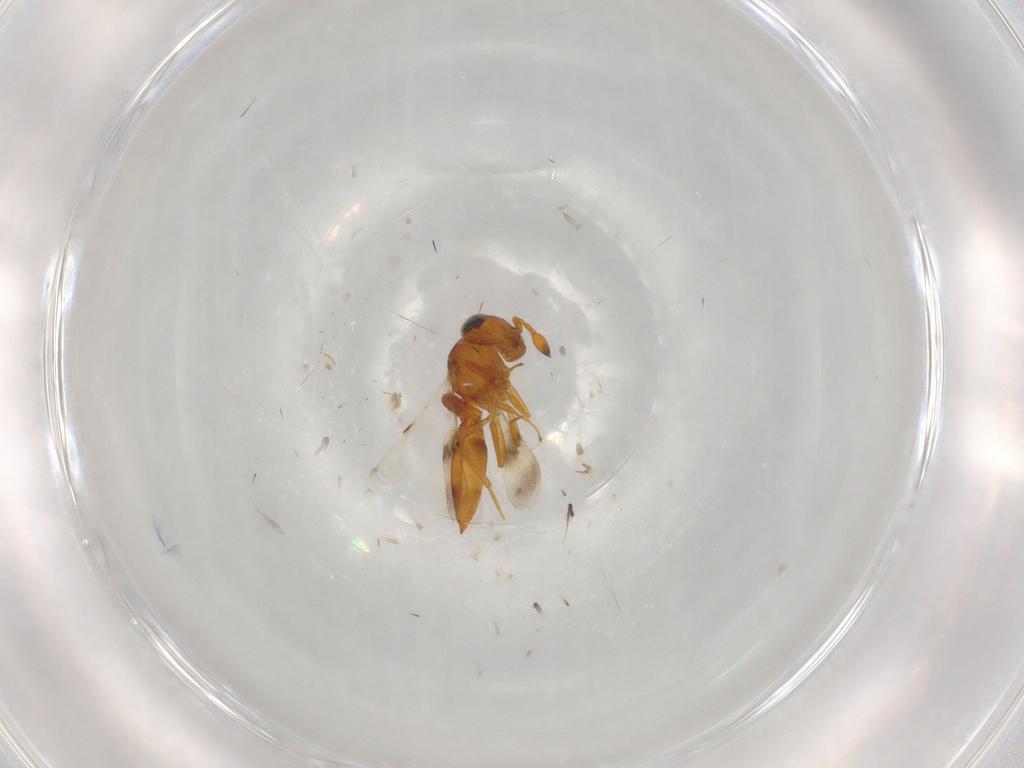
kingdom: Animalia
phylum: Arthropoda
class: Insecta
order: Hymenoptera
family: Scelionidae
